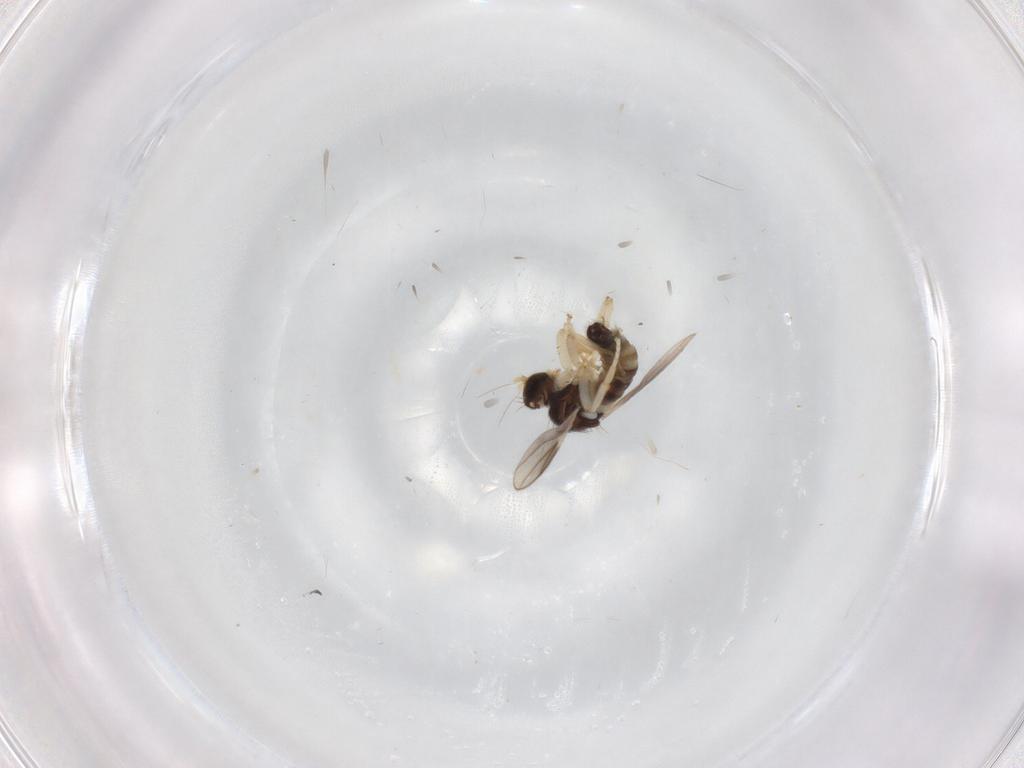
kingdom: Animalia
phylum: Arthropoda
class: Insecta
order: Diptera
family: Hybotidae
